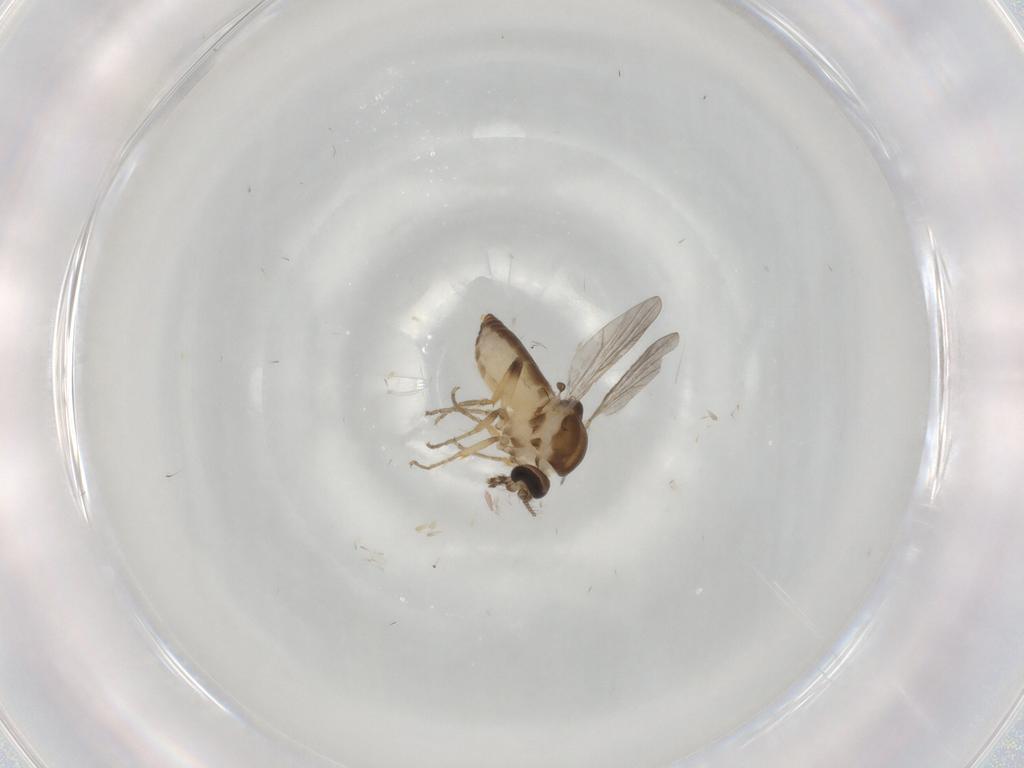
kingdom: Animalia
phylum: Arthropoda
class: Insecta
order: Diptera
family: Ceratopogonidae
